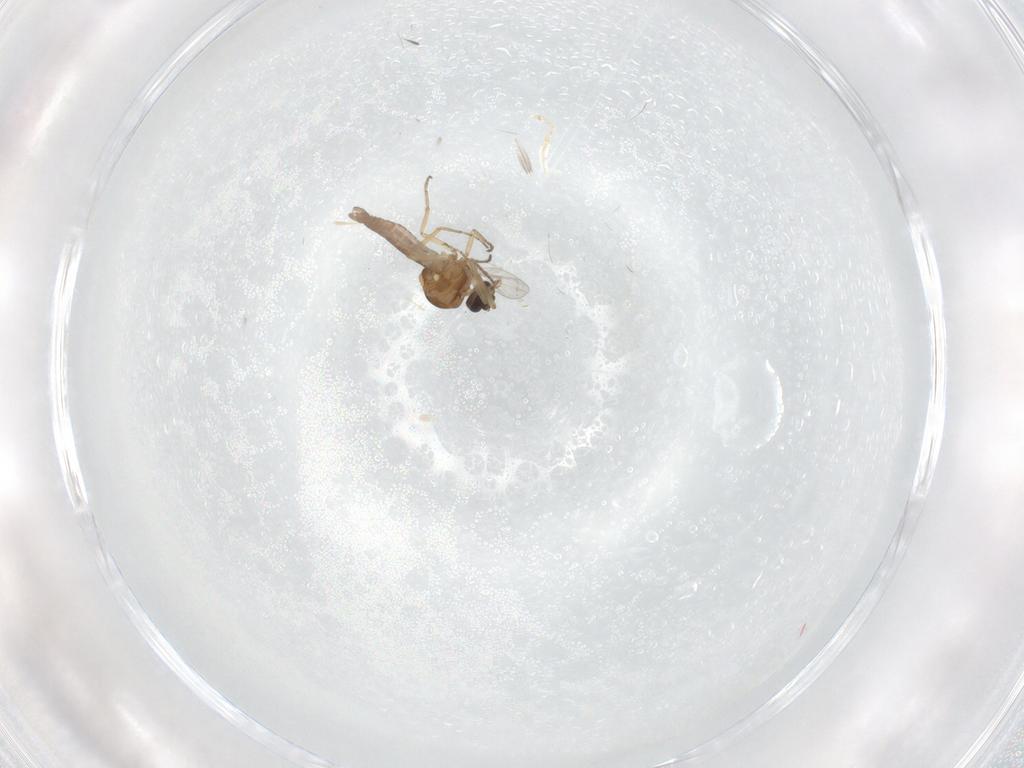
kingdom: Animalia
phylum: Arthropoda
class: Insecta
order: Diptera
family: Ceratopogonidae
